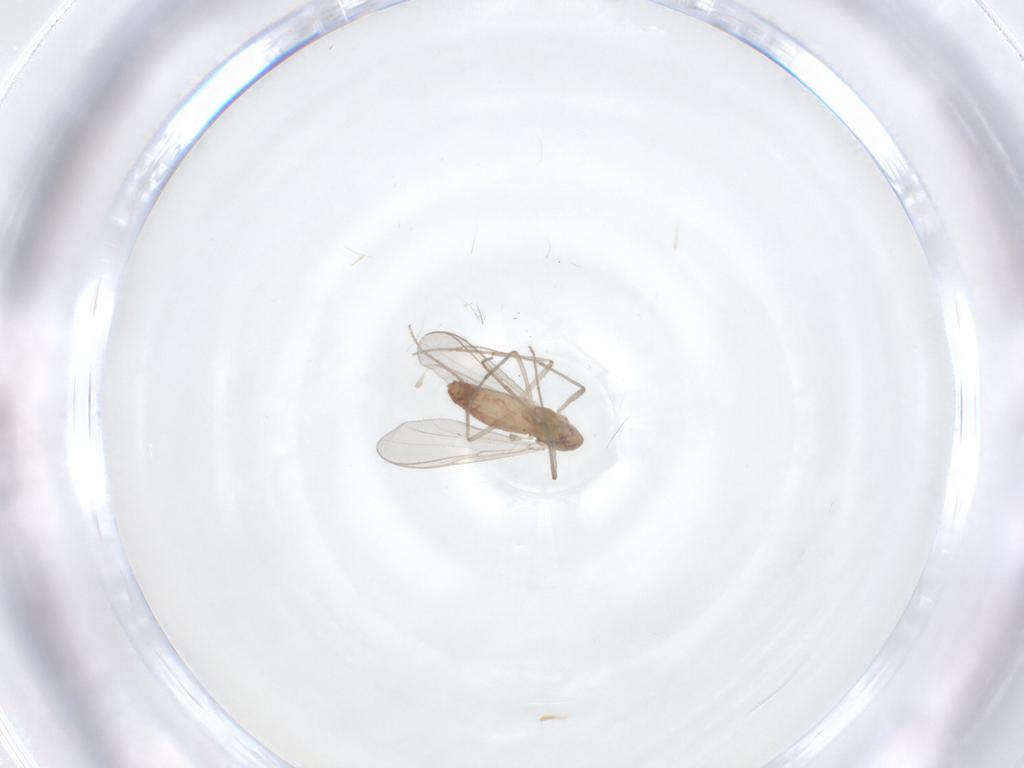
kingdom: Animalia
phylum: Arthropoda
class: Insecta
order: Diptera
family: Chironomidae
